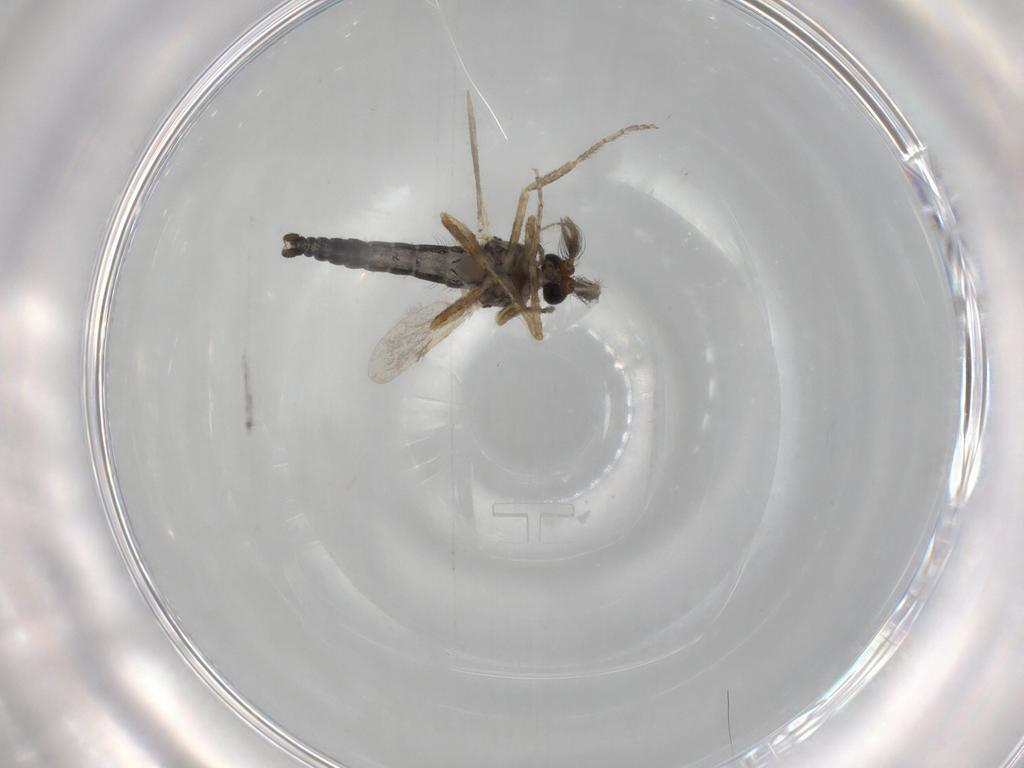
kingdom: Animalia
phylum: Arthropoda
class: Insecta
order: Diptera
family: Ceratopogonidae
